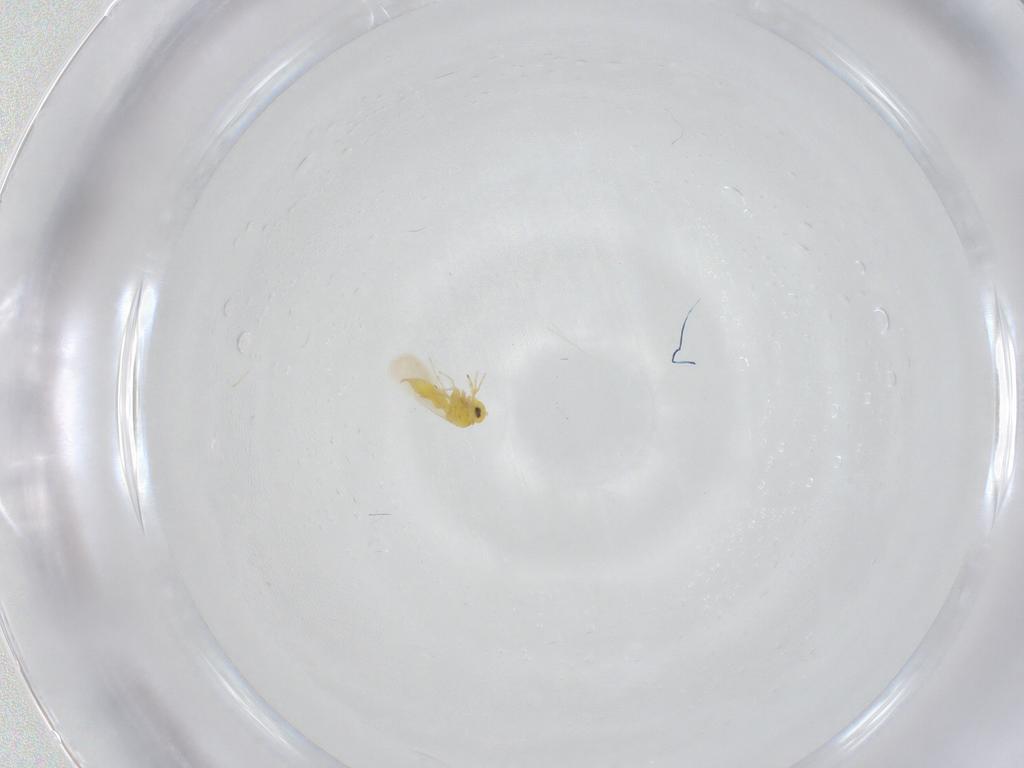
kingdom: Animalia
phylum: Arthropoda
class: Insecta
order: Hemiptera
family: Aleyrodidae
